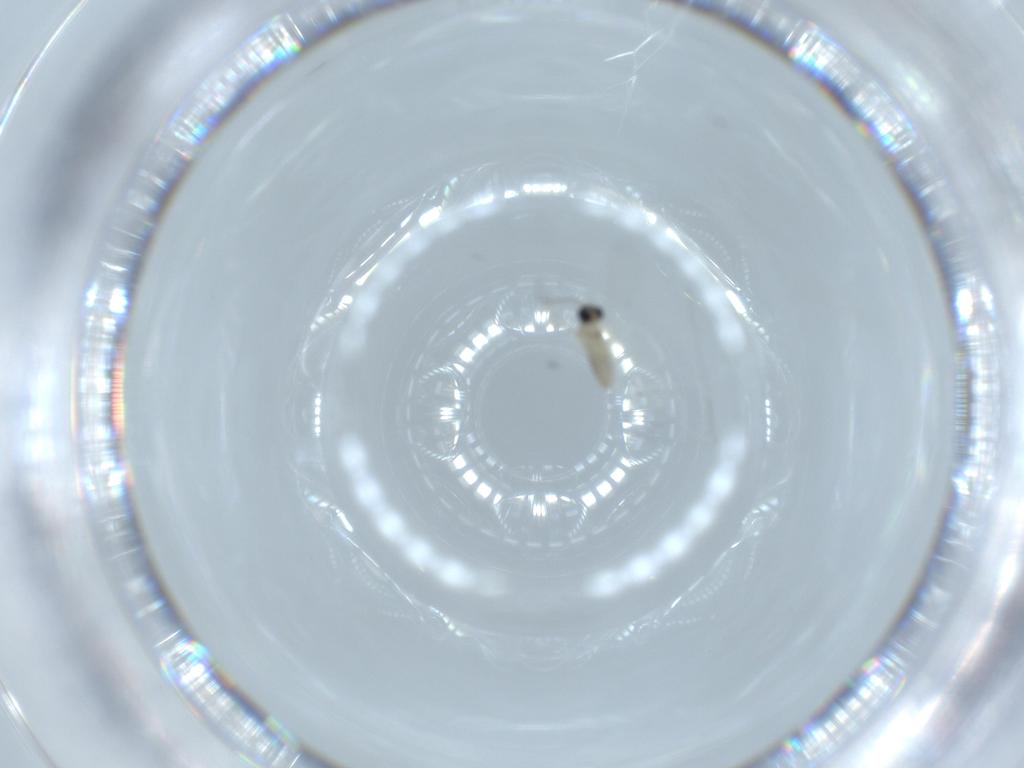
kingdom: Animalia
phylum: Arthropoda
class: Insecta
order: Diptera
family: Cecidomyiidae
